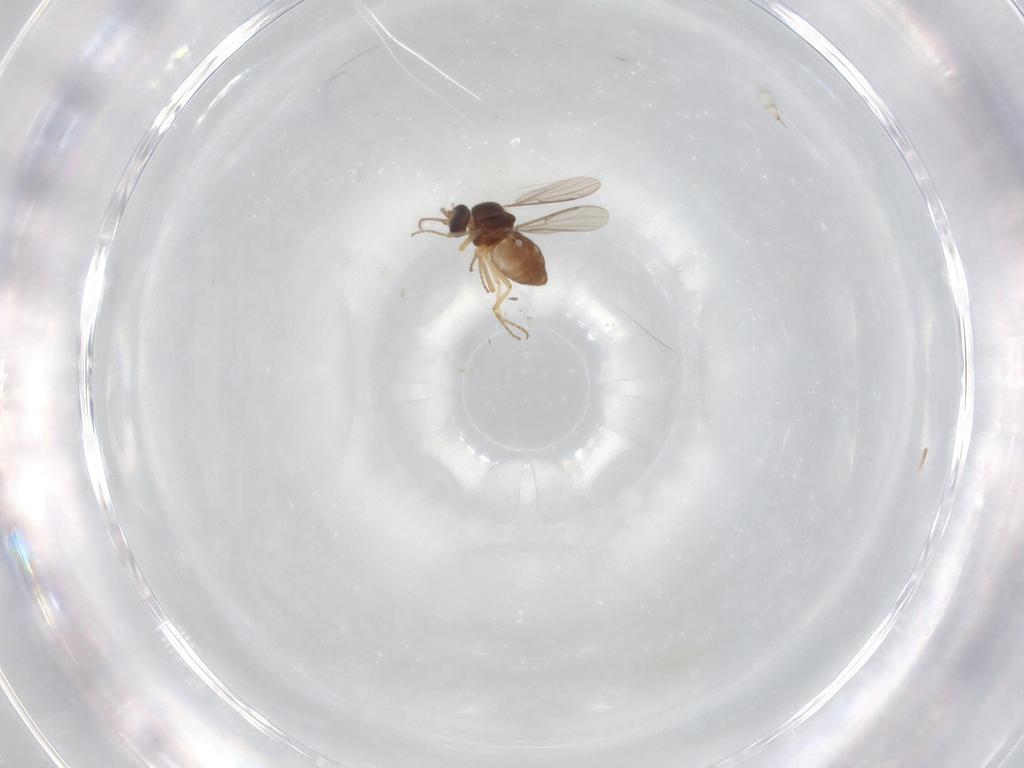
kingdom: Animalia
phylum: Arthropoda
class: Insecta
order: Diptera
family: Ceratopogonidae
